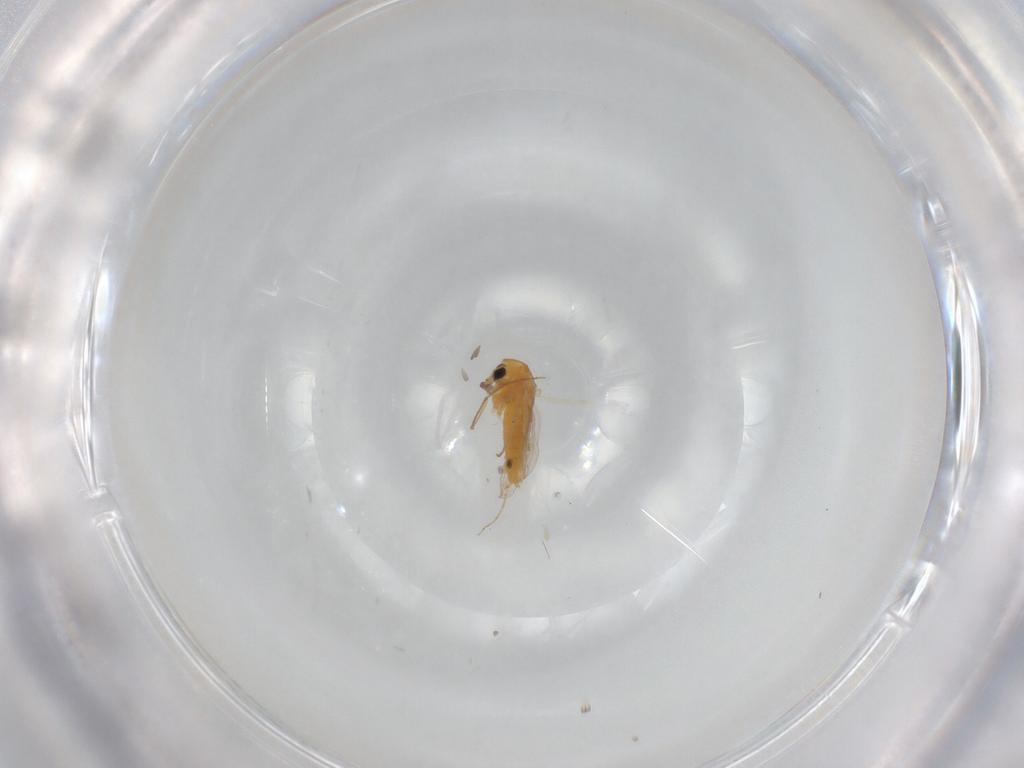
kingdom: Animalia
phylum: Arthropoda
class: Insecta
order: Diptera
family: Chironomidae
